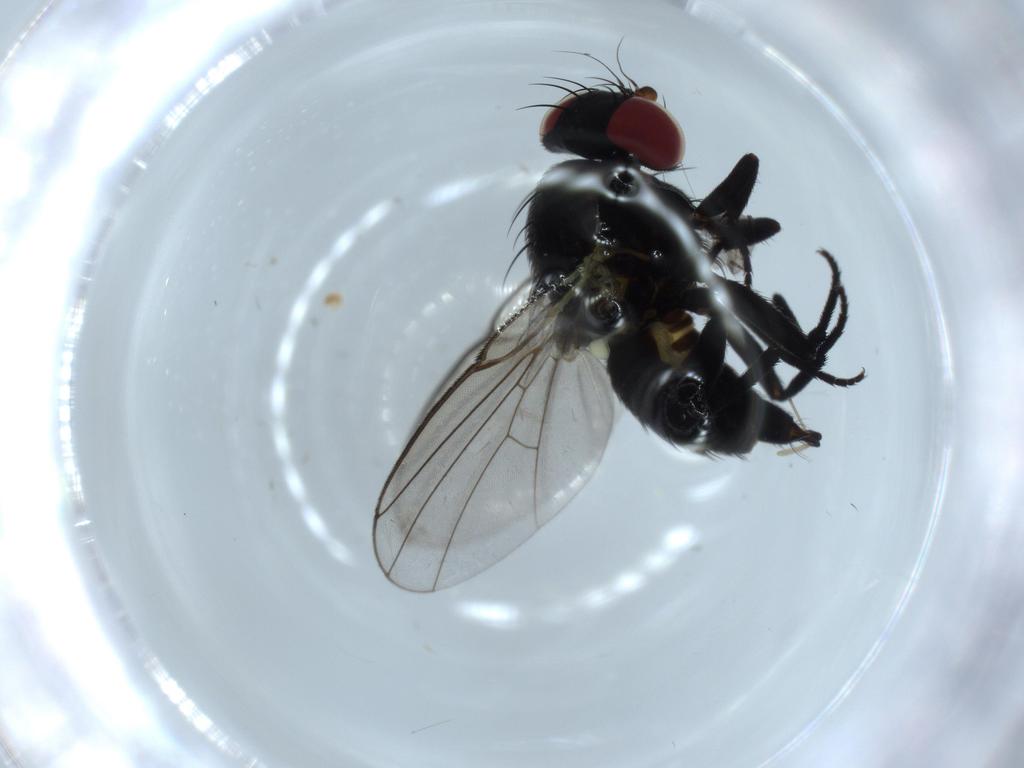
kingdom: Animalia
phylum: Arthropoda
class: Insecta
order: Diptera
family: Agromyzidae
